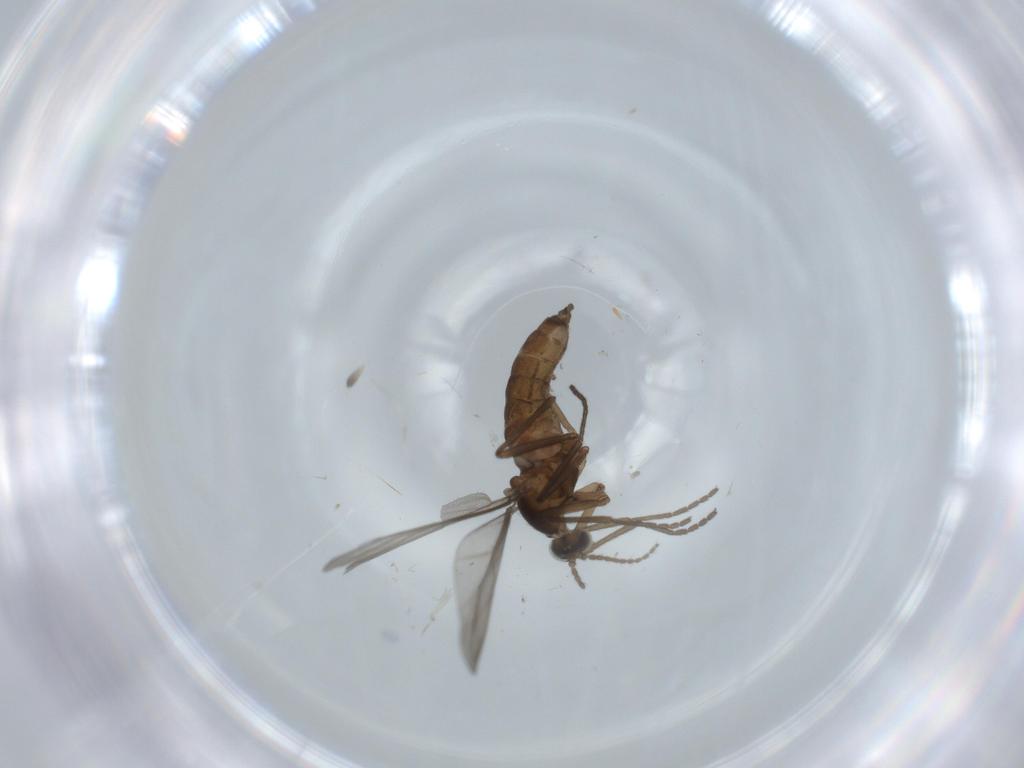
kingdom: Animalia
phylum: Arthropoda
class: Insecta
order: Diptera
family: Cecidomyiidae
